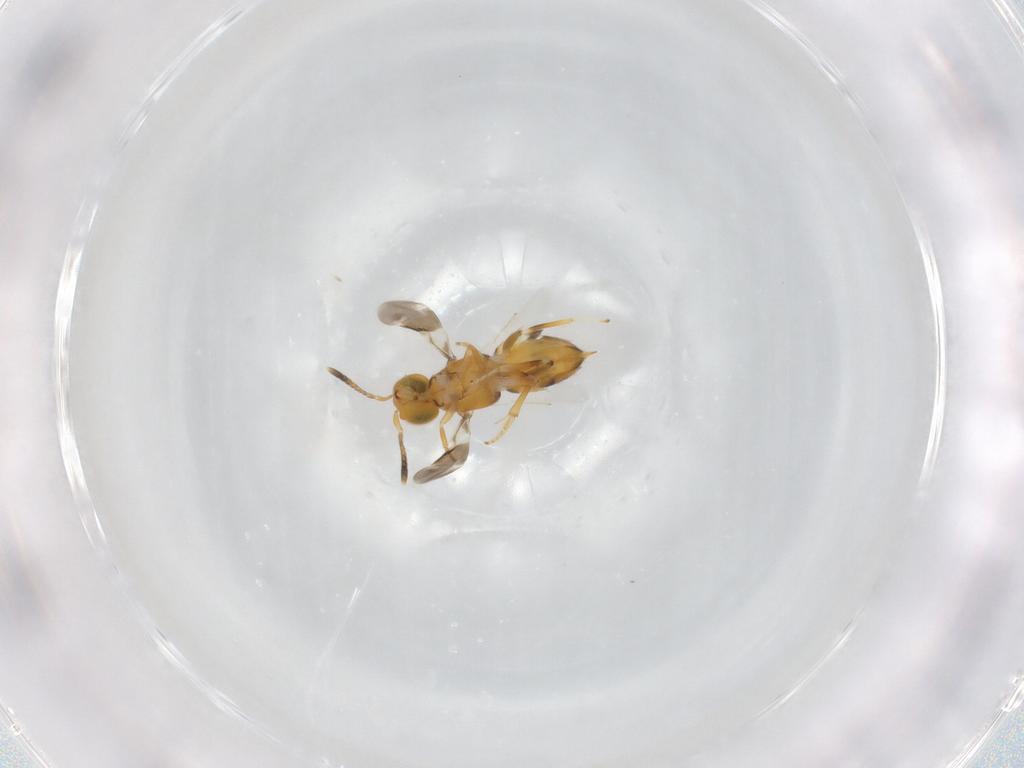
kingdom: Animalia
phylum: Arthropoda
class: Insecta
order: Hymenoptera
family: Encyrtidae
